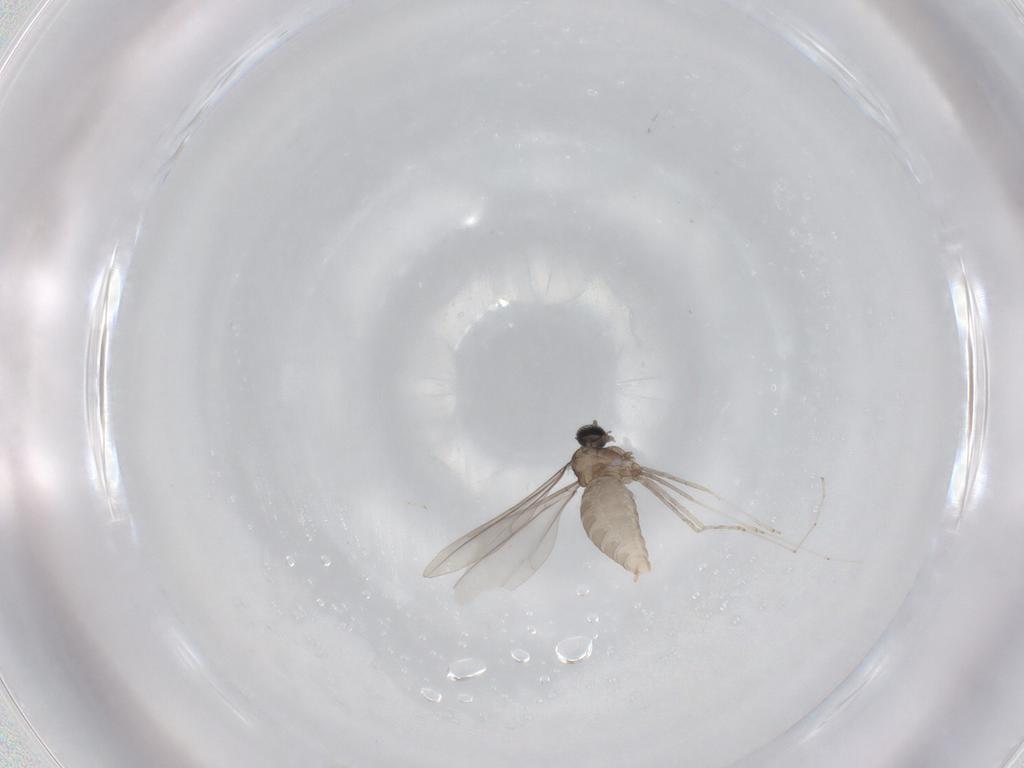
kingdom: Animalia
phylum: Arthropoda
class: Insecta
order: Diptera
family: Cecidomyiidae
